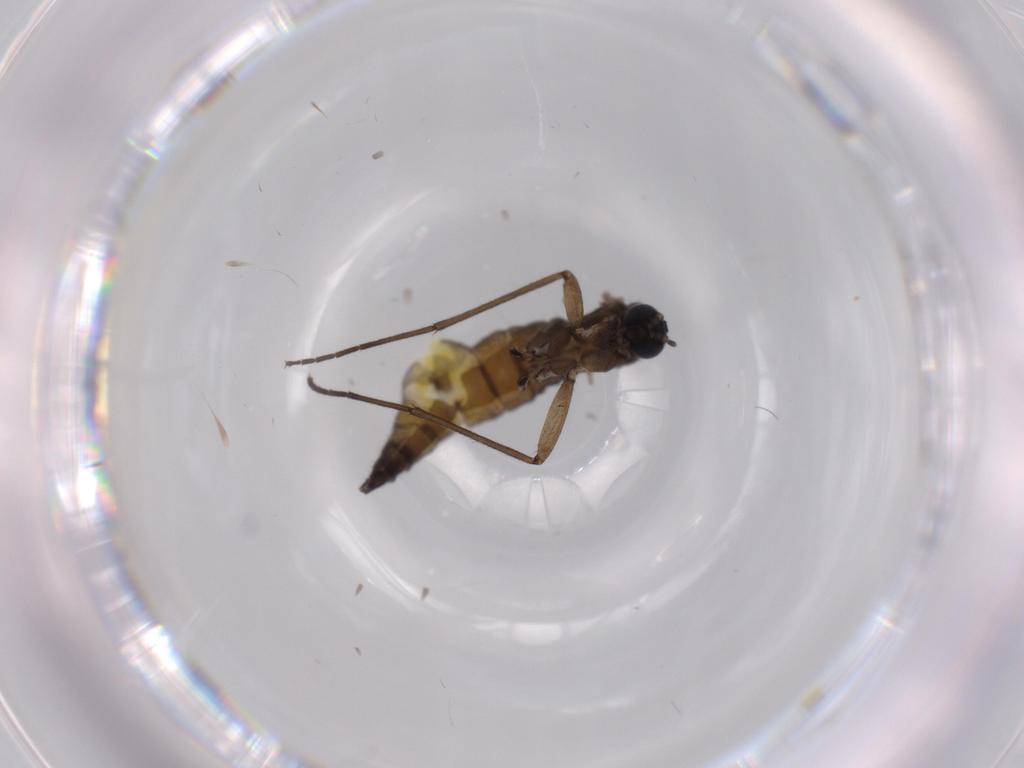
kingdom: Animalia
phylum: Arthropoda
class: Insecta
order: Diptera
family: Sciaridae
